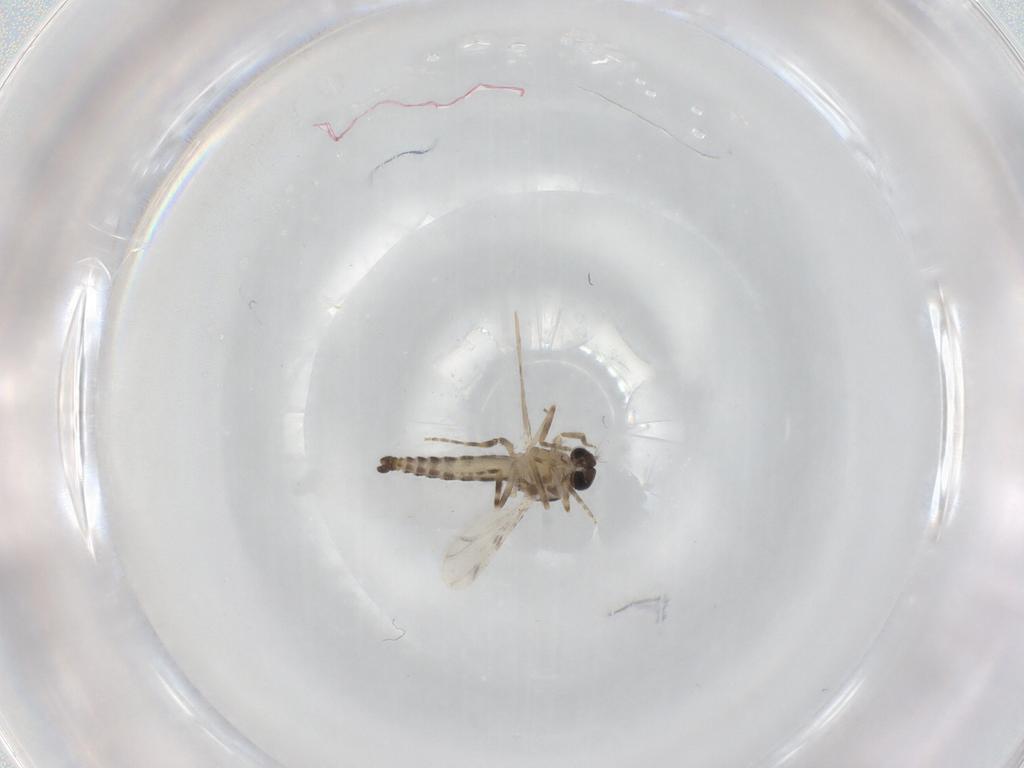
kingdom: Animalia
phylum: Arthropoda
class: Insecta
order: Diptera
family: Ceratopogonidae
